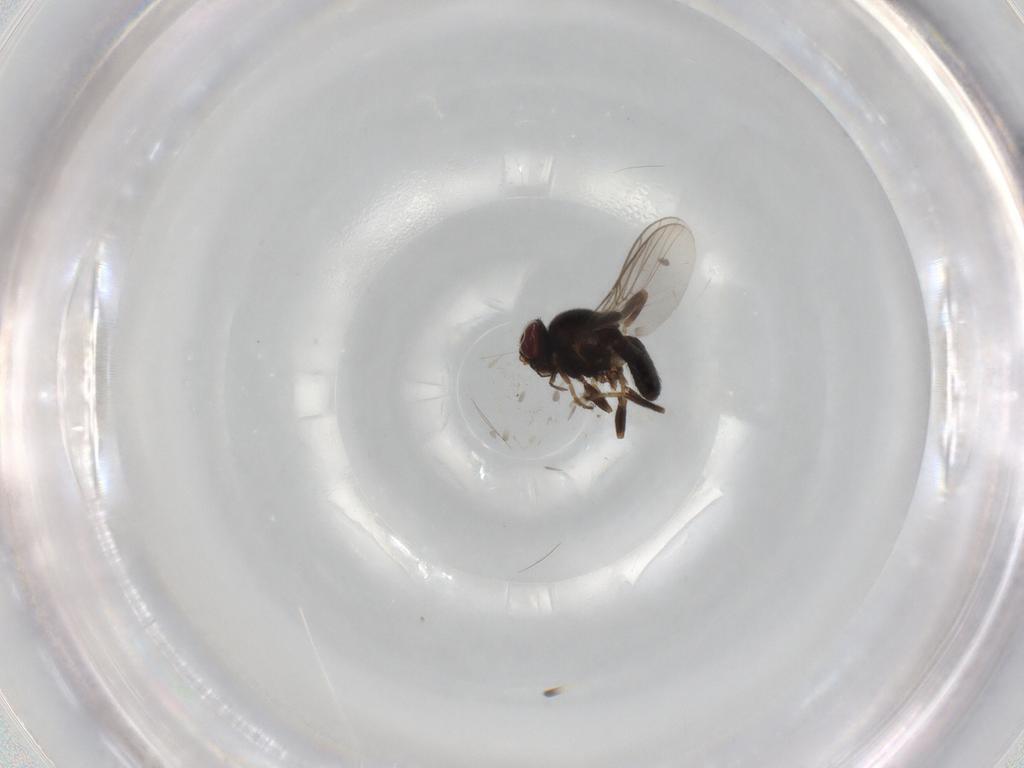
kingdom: Animalia
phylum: Arthropoda
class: Insecta
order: Diptera
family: Chloropidae
